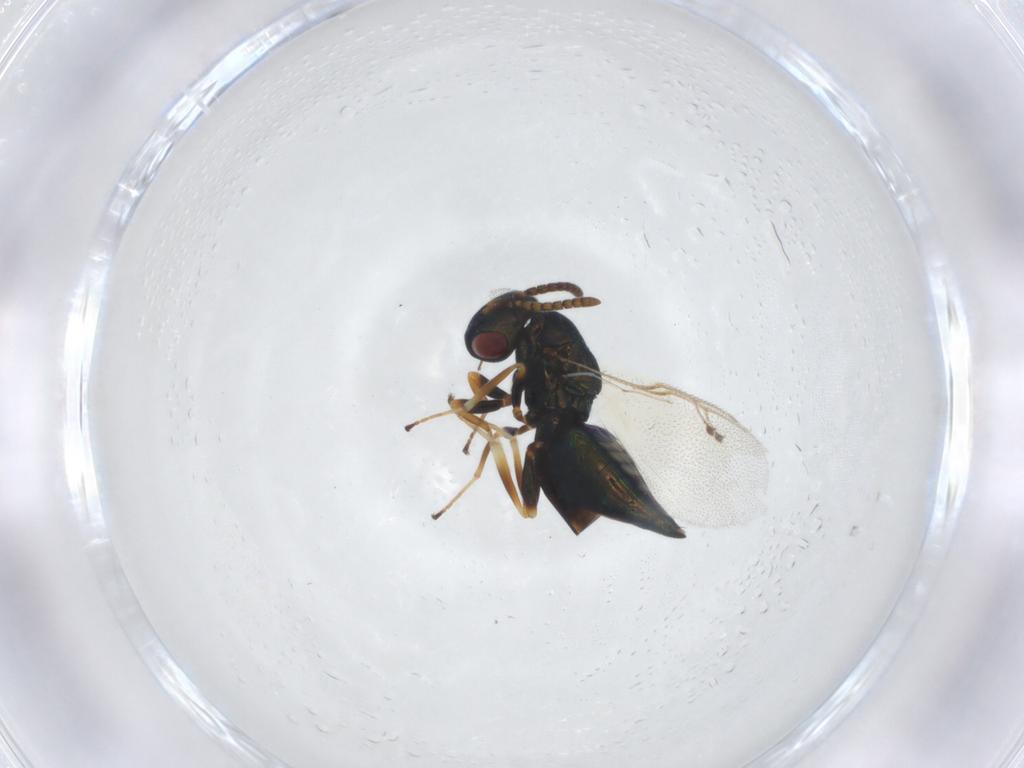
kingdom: Animalia
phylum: Arthropoda
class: Insecta
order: Hymenoptera
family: Pteromalidae
